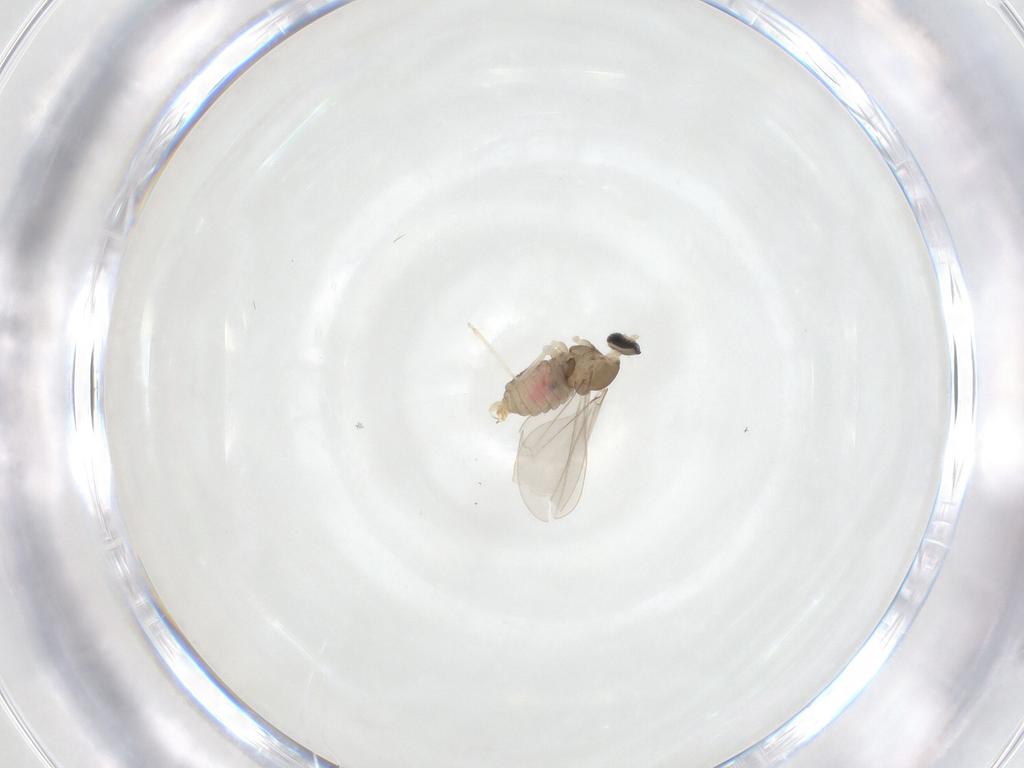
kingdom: Animalia
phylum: Arthropoda
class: Insecta
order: Diptera
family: Cecidomyiidae
